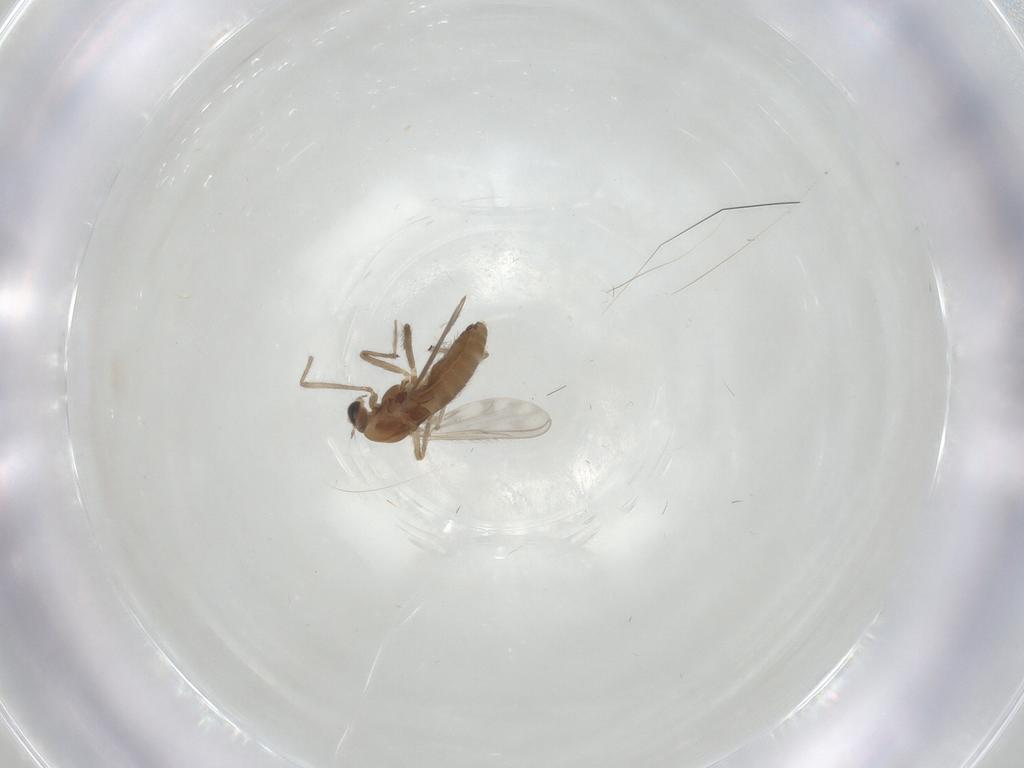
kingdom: Animalia
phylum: Arthropoda
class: Insecta
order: Diptera
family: Chironomidae
